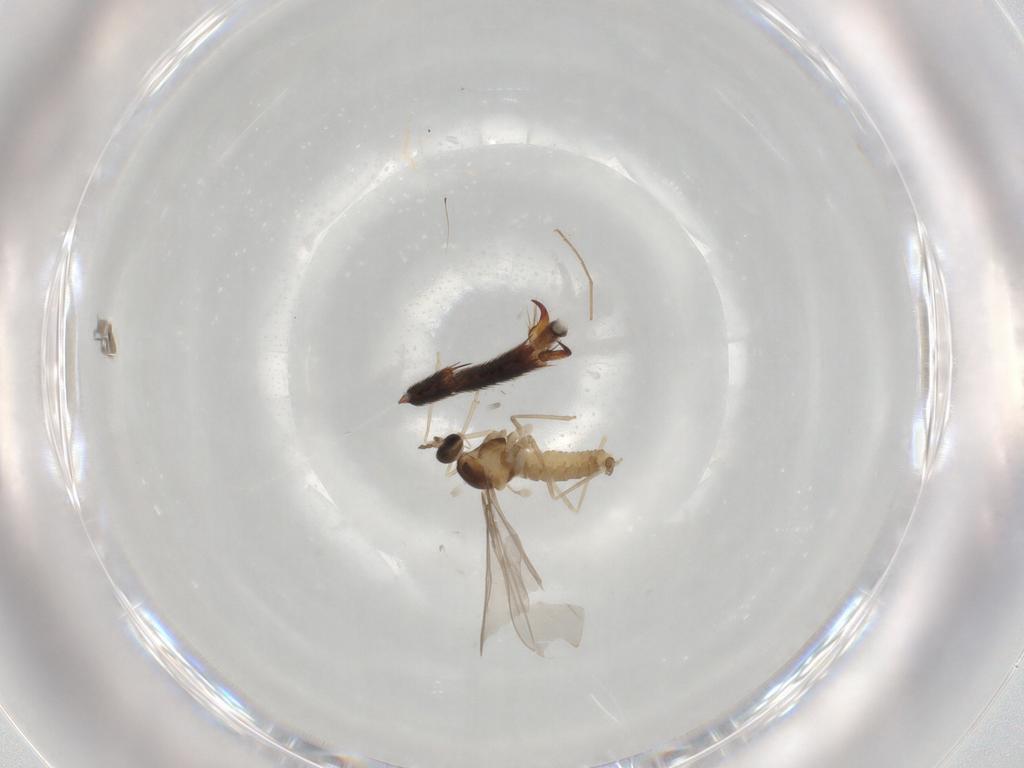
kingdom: Animalia
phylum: Arthropoda
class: Insecta
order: Diptera
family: Cecidomyiidae
